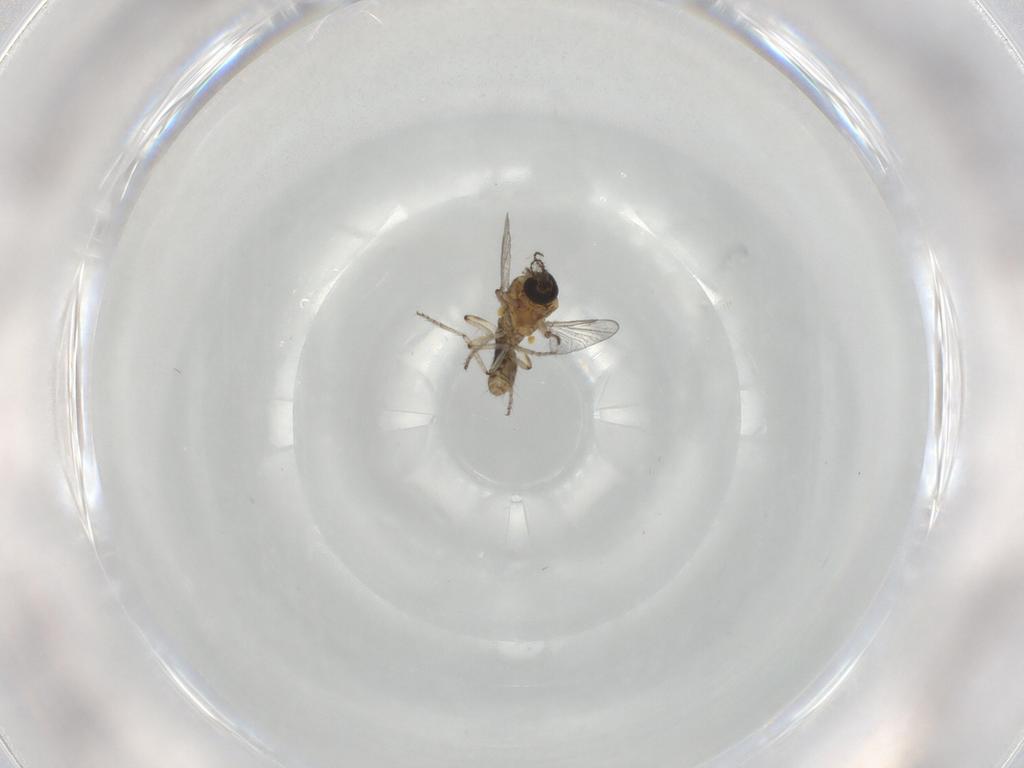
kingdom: Animalia
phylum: Arthropoda
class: Insecta
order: Diptera
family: Ceratopogonidae
